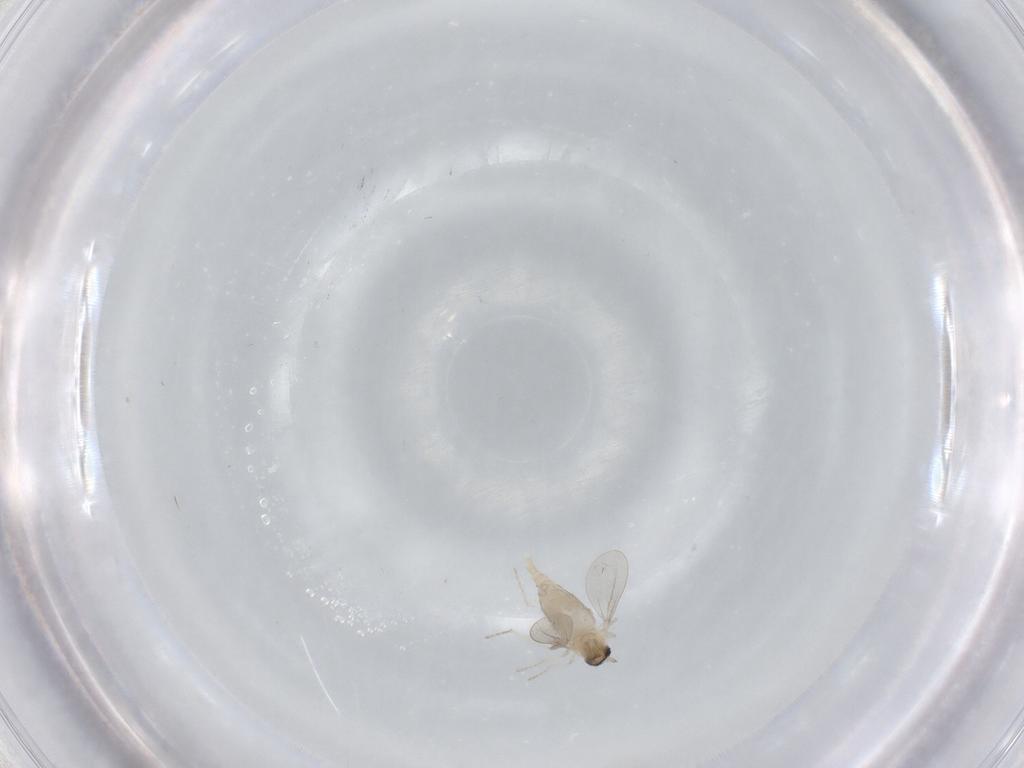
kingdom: Animalia
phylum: Arthropoda
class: Insecta
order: Diptera
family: Cecidomyiidae
